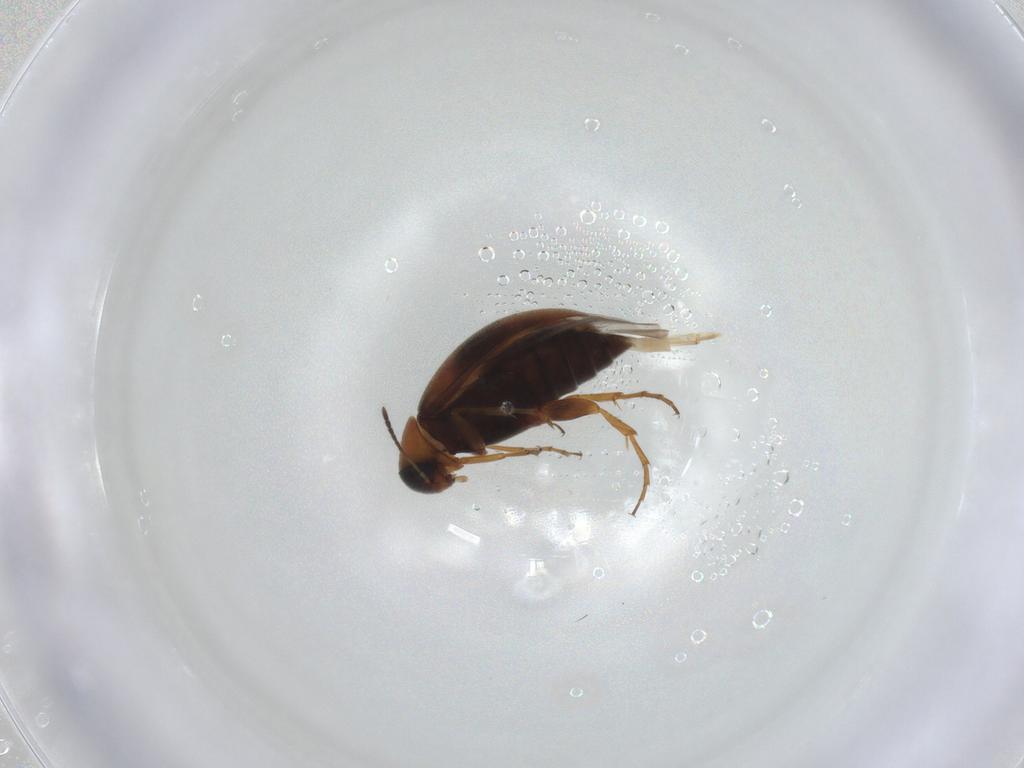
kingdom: Animalia
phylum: Arthropoda
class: Insecta
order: Coleoptera
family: Scraptiidae
